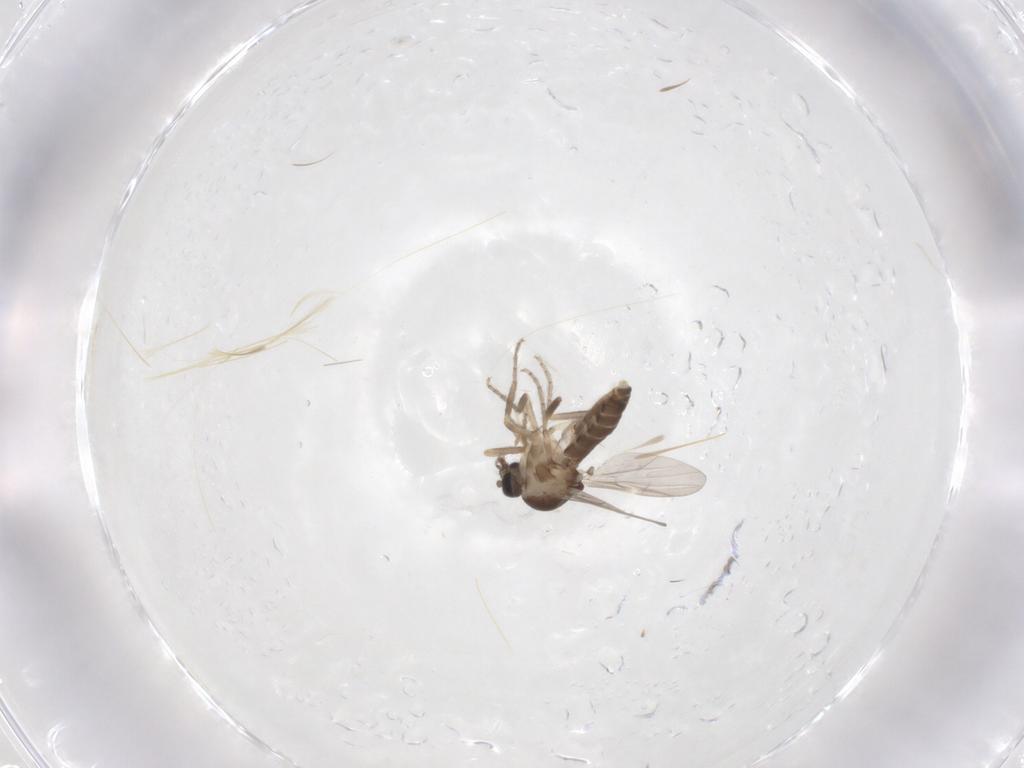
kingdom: Animalia
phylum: Arthropoda
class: Insecta
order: Diptera
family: Ceratopogonidae
